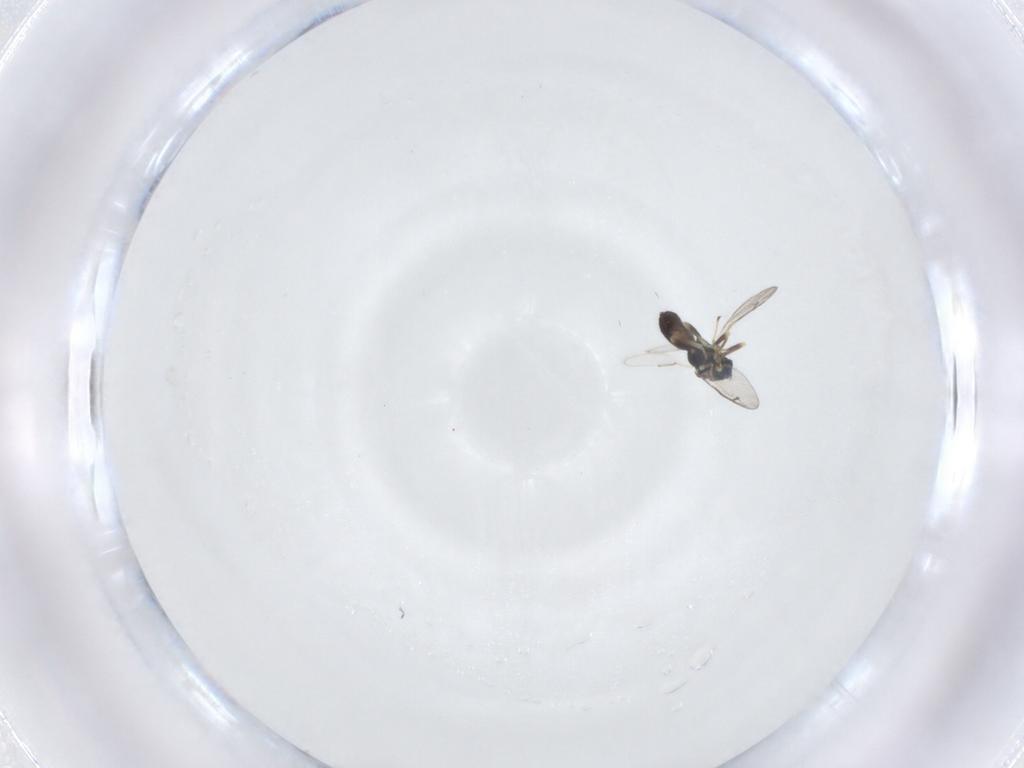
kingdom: Animalia
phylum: Arthropoda
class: Insecta
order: Hymenoptera
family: Pteromalidae
